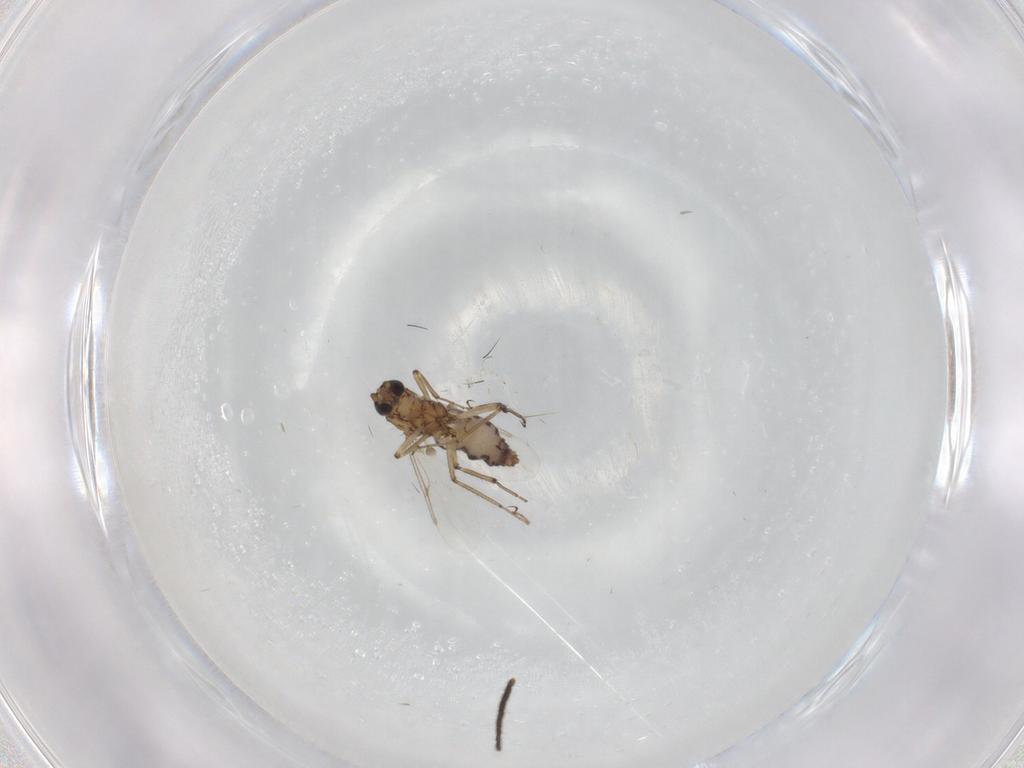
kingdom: Animalia
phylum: Arthropoda
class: Insecta
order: Diptera
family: Ceratopogonidae
